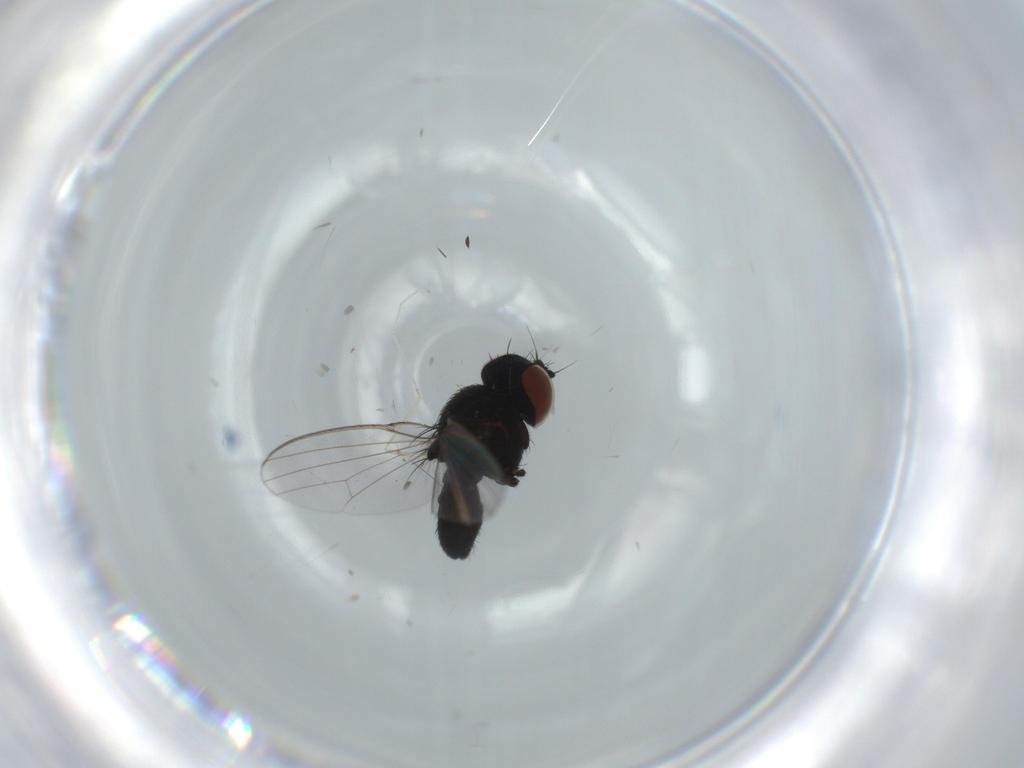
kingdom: Animalia
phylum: Arthropoda
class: Insecta
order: Diptera
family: Cecidomyiidae
